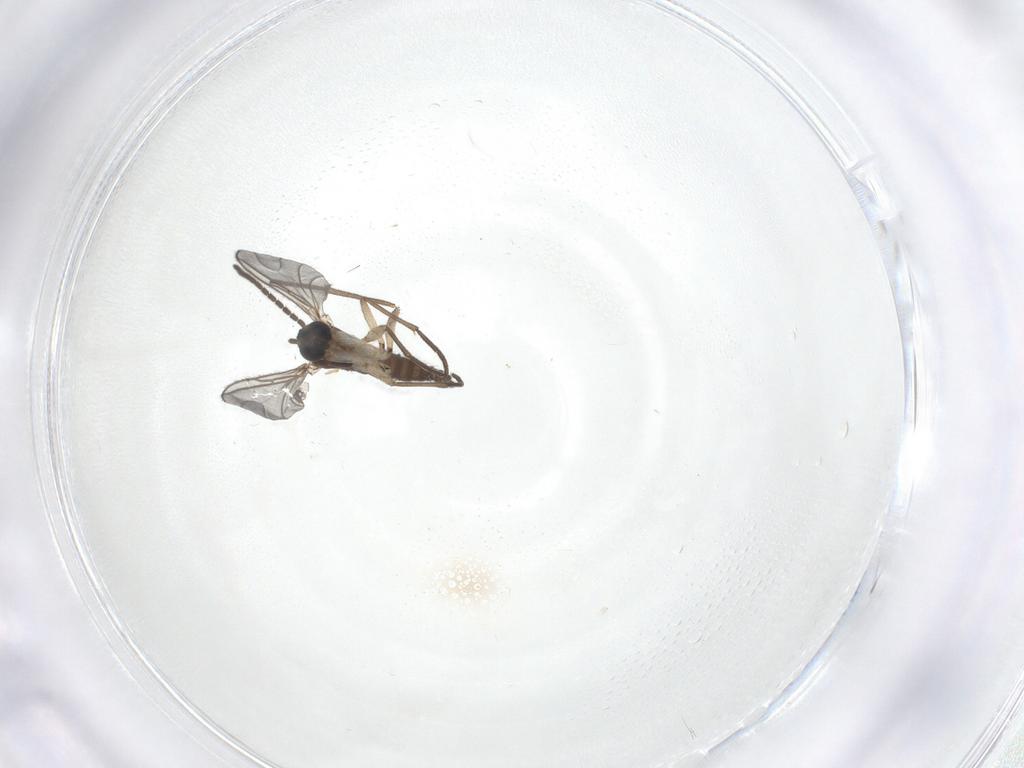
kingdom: Animalia
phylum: Arthropoda
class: Insecta
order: Diptera
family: Sciaridae
